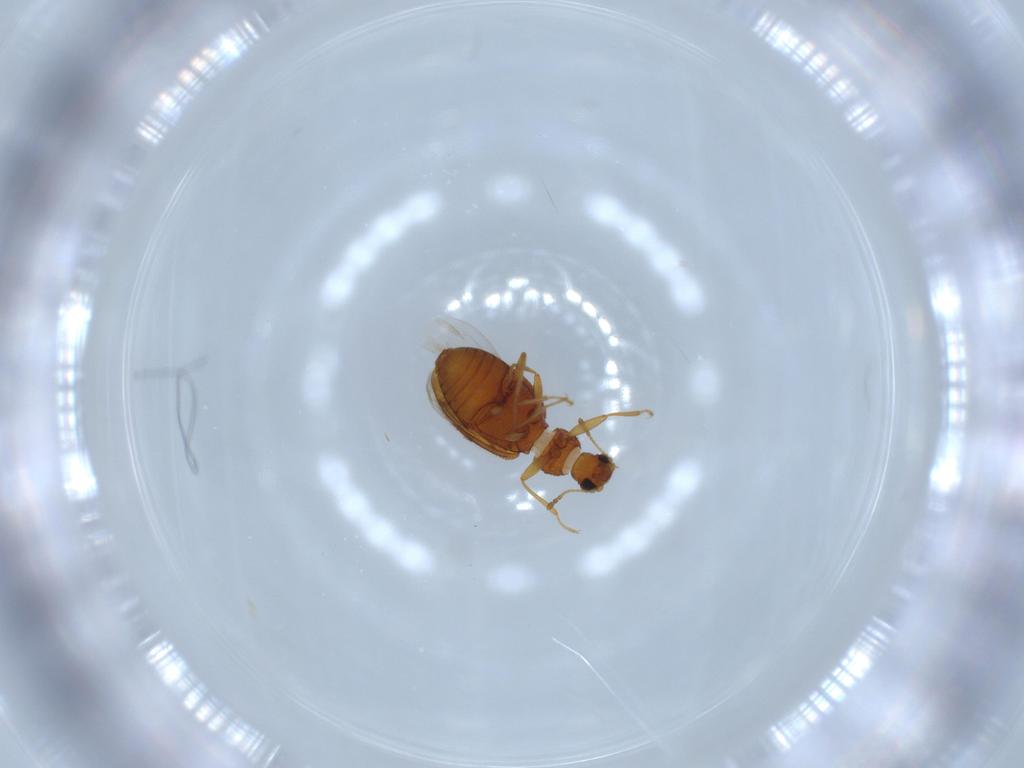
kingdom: Animalia
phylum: Arthropoda
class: Insecta
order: Coleoptera
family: Latridiidae
